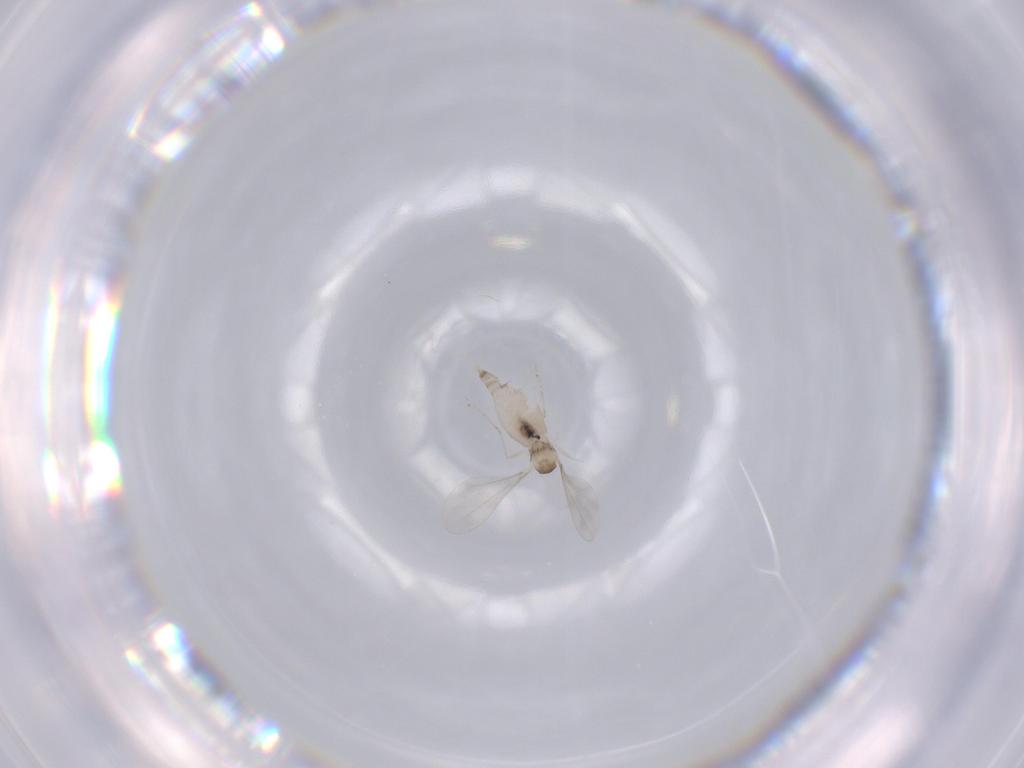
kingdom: Animalia
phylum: Arthropoda
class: Insecta
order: Diptera
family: Cecidomyiidae
